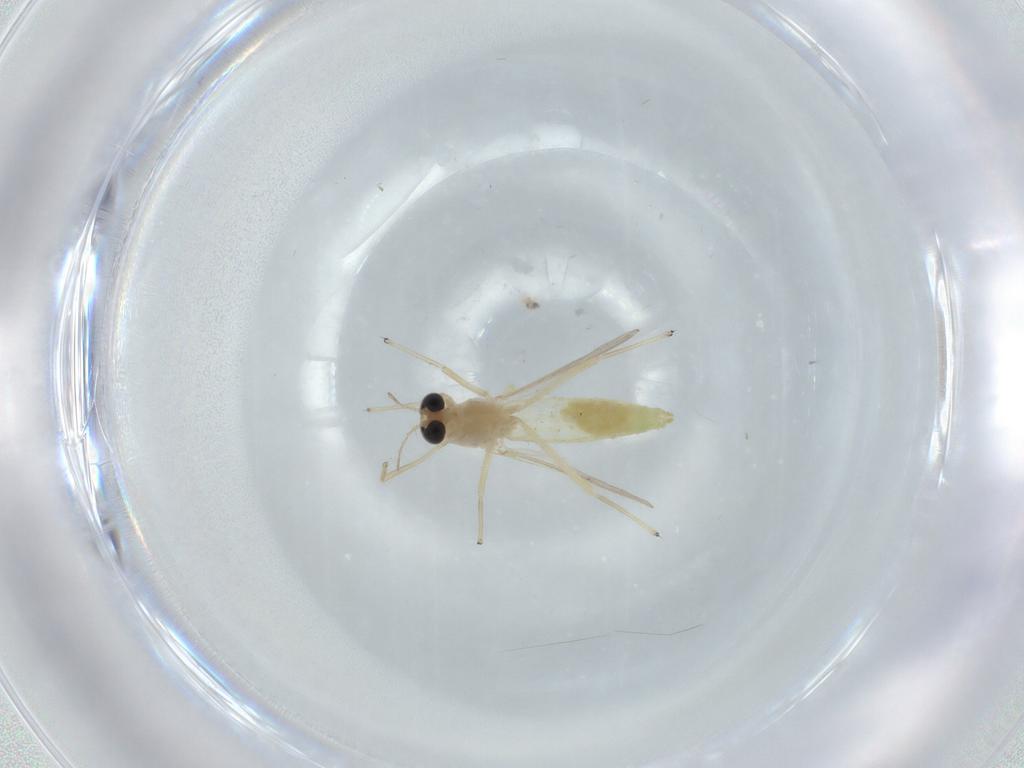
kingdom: Animalia
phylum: Arthropoda
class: Insecta
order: Diptera
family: Chironomidae
